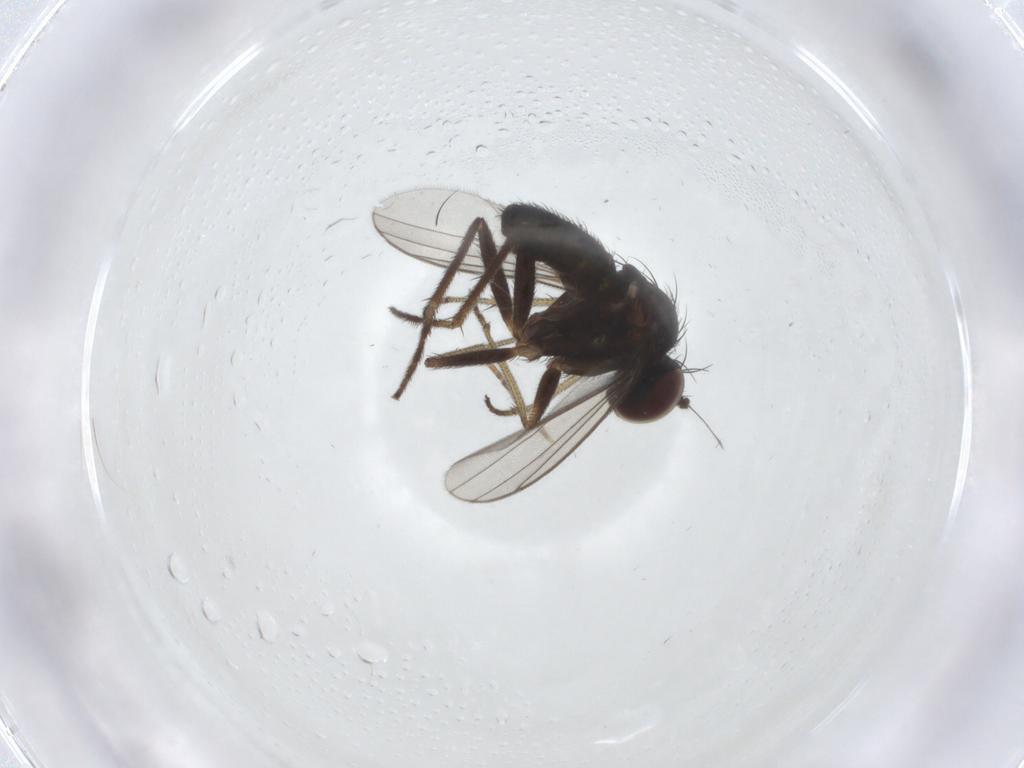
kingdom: Animalia
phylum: Arthropoda
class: Insecta
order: Diptera
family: Dolichopodidae
